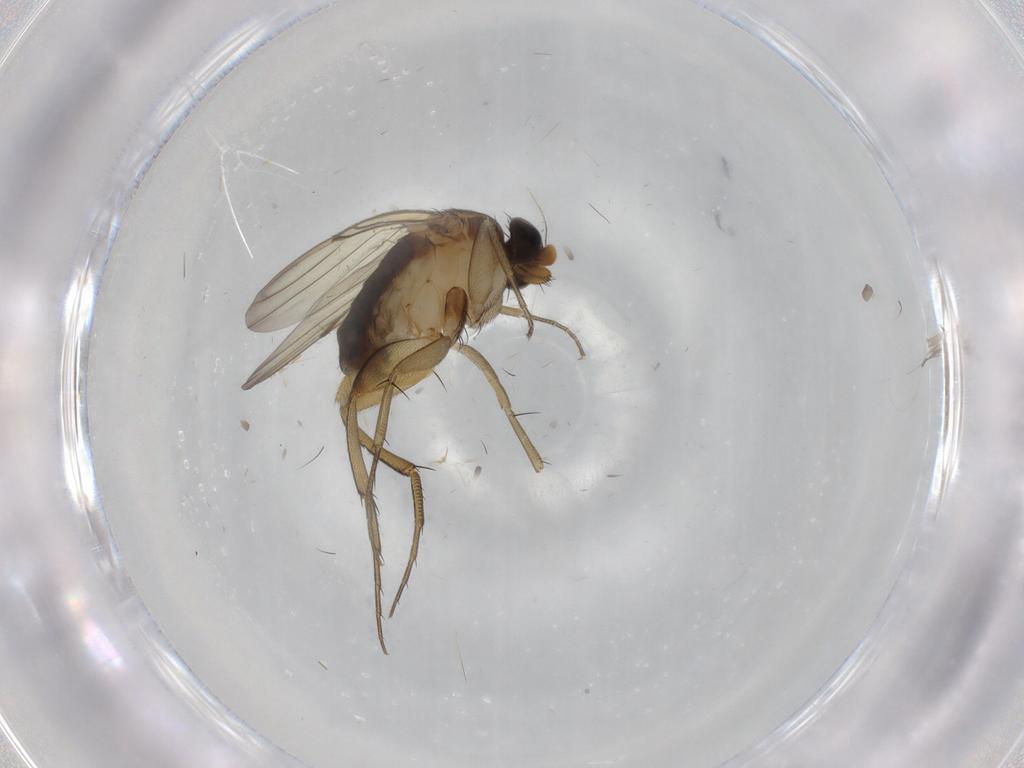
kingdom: Animalia
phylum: Arthropoda
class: Insecta
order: Diptera
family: Phoridae
